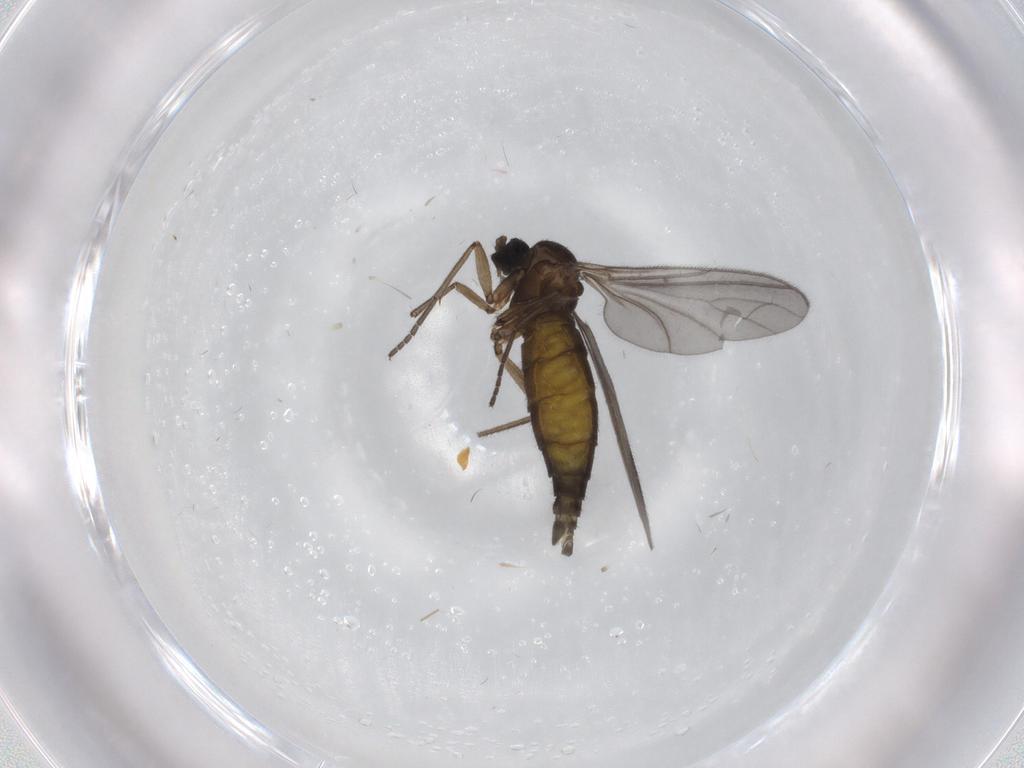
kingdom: Animalia
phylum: Arthropoda
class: Insecta
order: Diptera
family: Sciaridae
